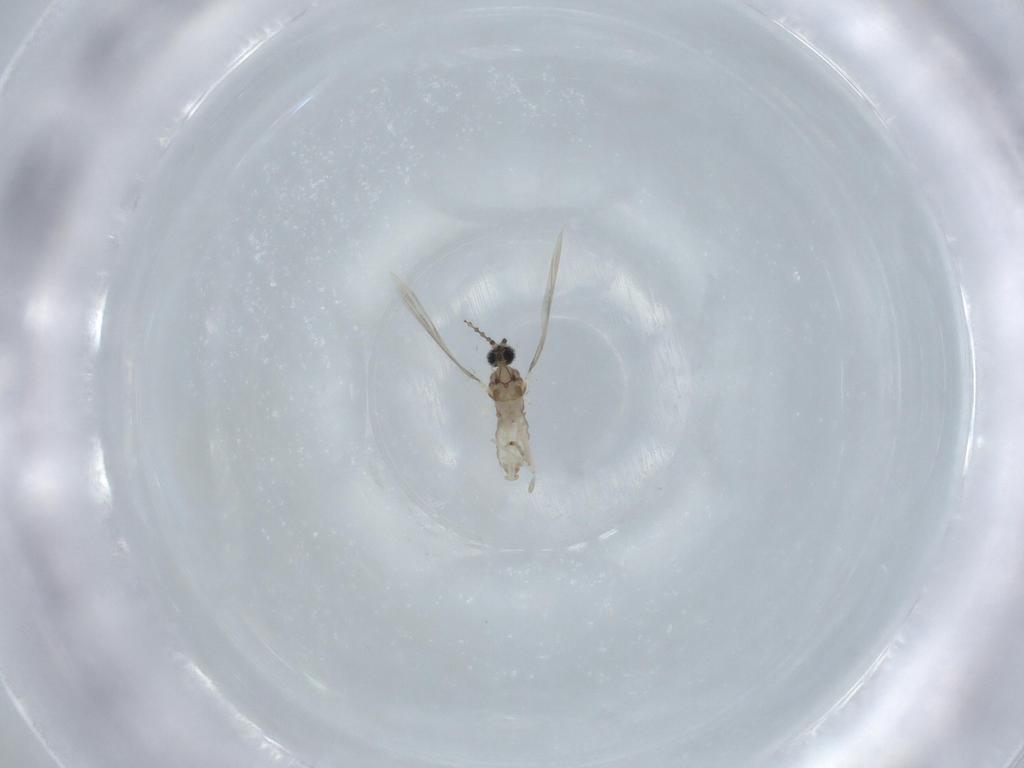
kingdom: Animalia
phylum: Arthropoda
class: Insecta
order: Diptera
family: Cecidomyiidae
